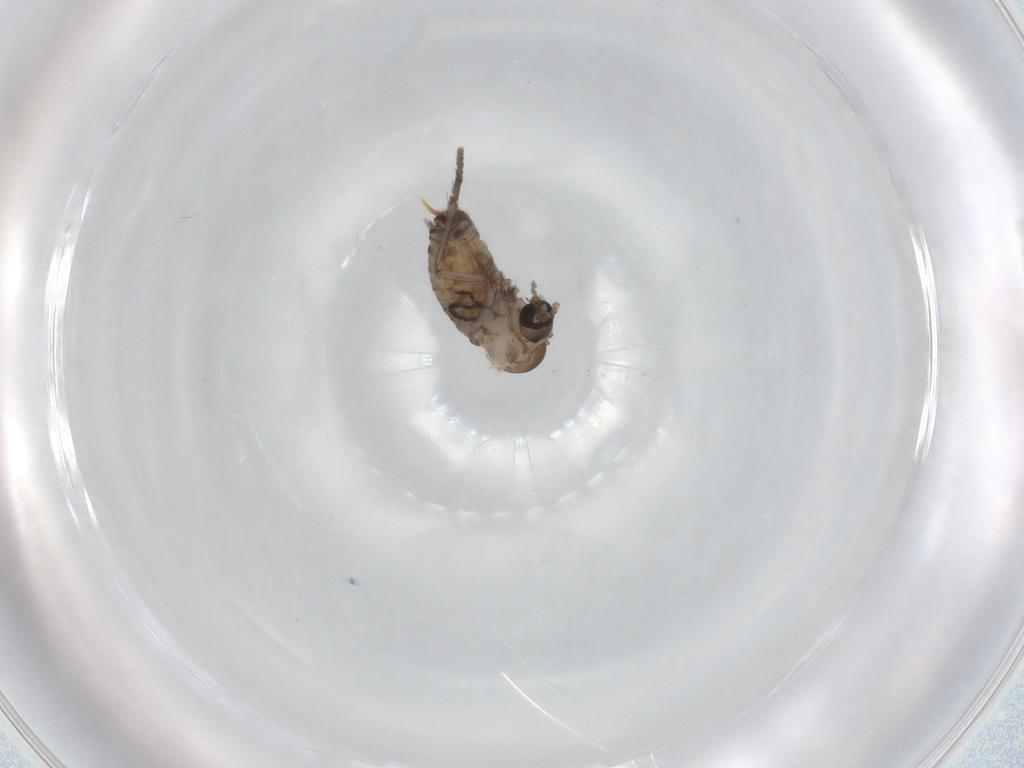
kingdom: Animalia
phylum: Arthropoda
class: Insecta
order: Diptera
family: Psychodidae
